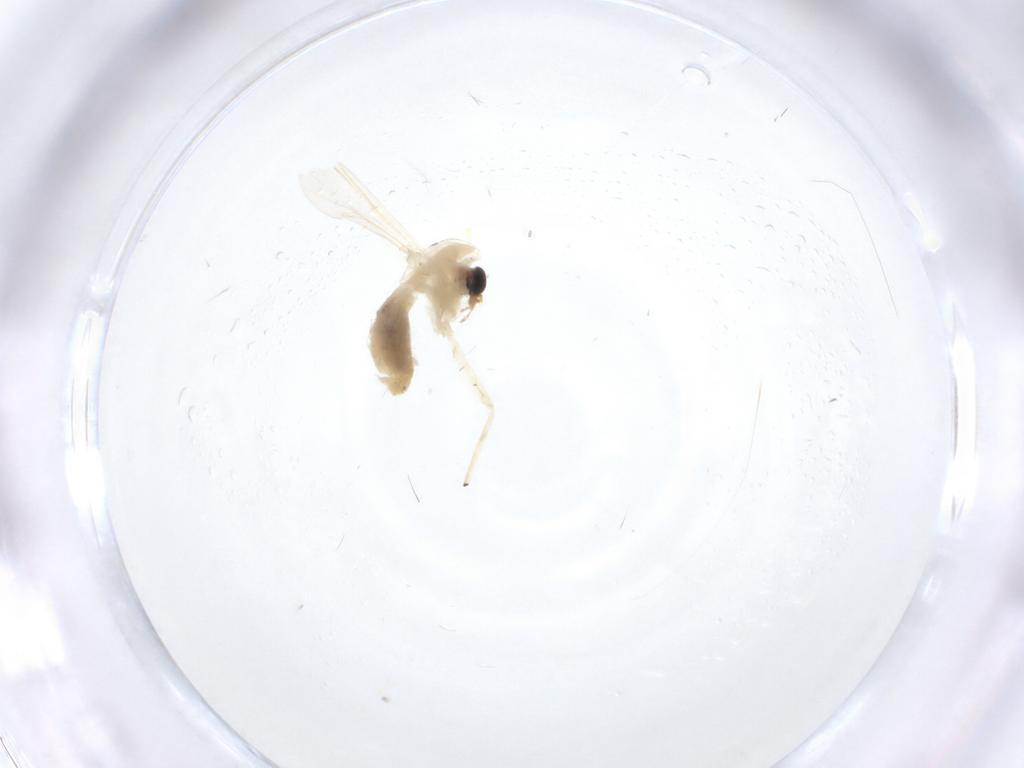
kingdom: Animalia
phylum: Arthropoda
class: Insecta
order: Diptera
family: Chironomidae
